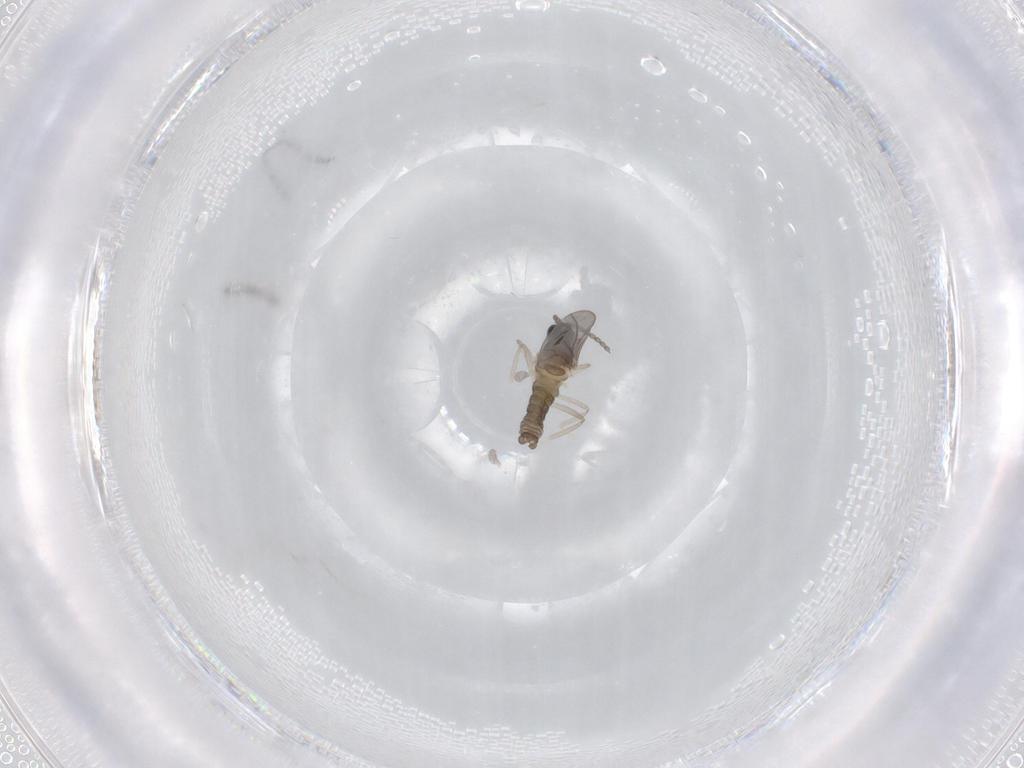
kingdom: Animalia
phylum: Arthropoda
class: Insecta
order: Diptera
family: Cecidomyiidae
